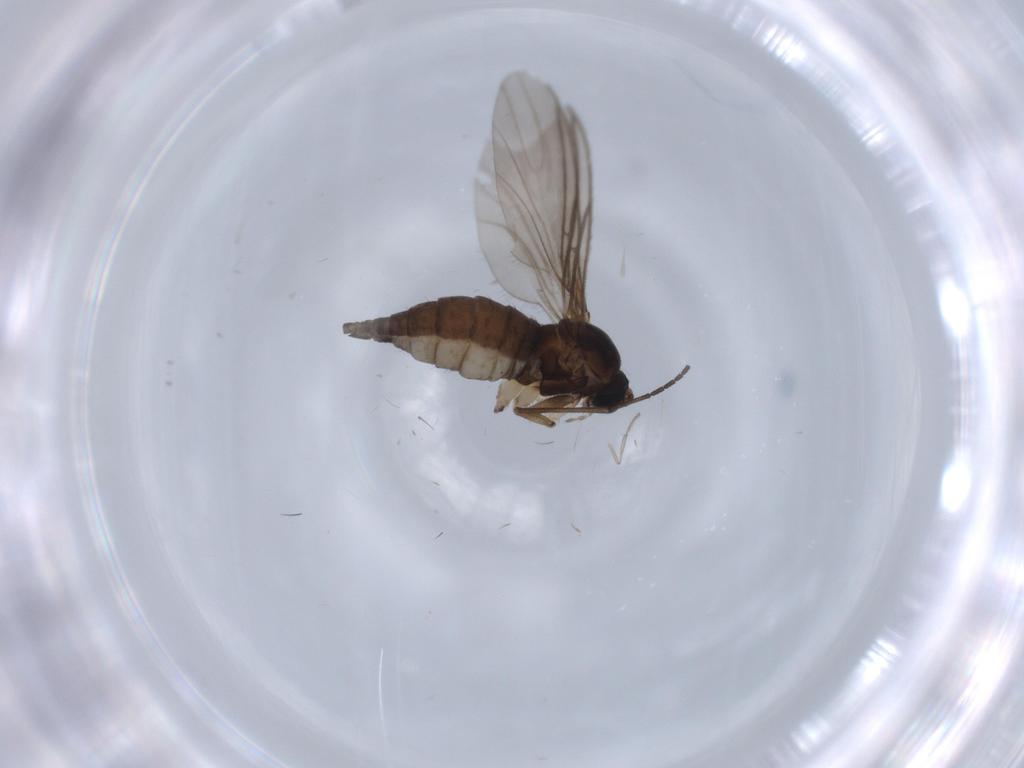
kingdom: Animalia
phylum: Arthropoda
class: Insecta
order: Diptera
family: Sciaridae
